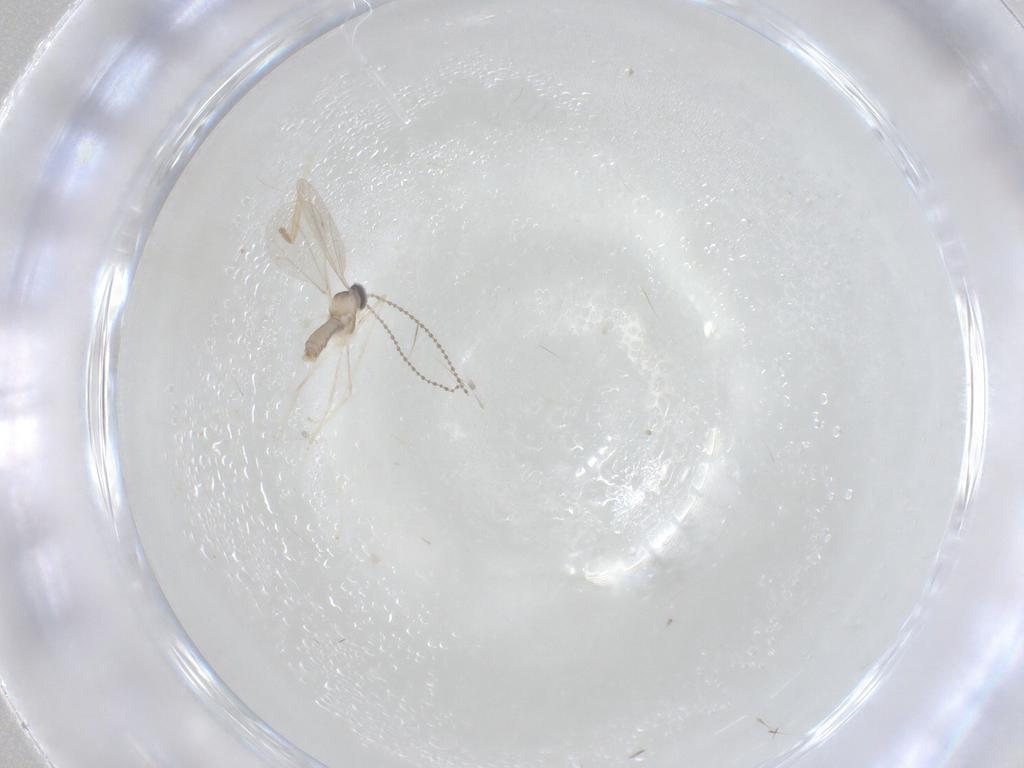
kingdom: Animalia
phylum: Arthropoda
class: Insecta
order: Diptera
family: Cecidomyiidae
